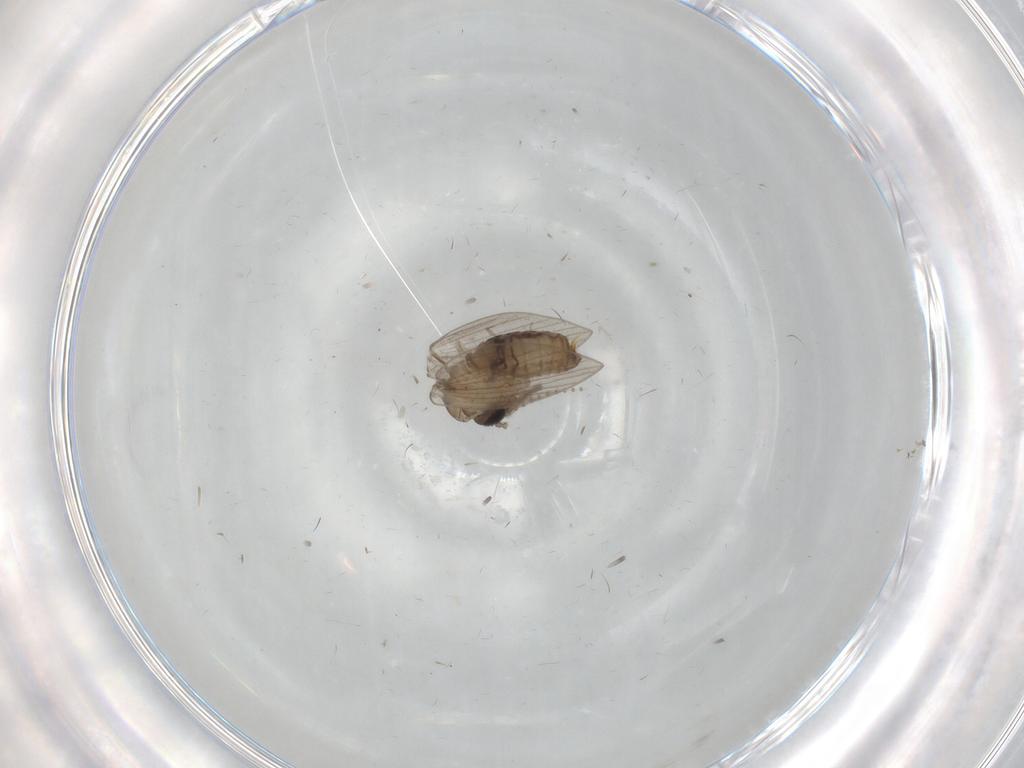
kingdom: Animalia
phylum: Arthropoda
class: Insecta
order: Diptera
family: Psychodidae
